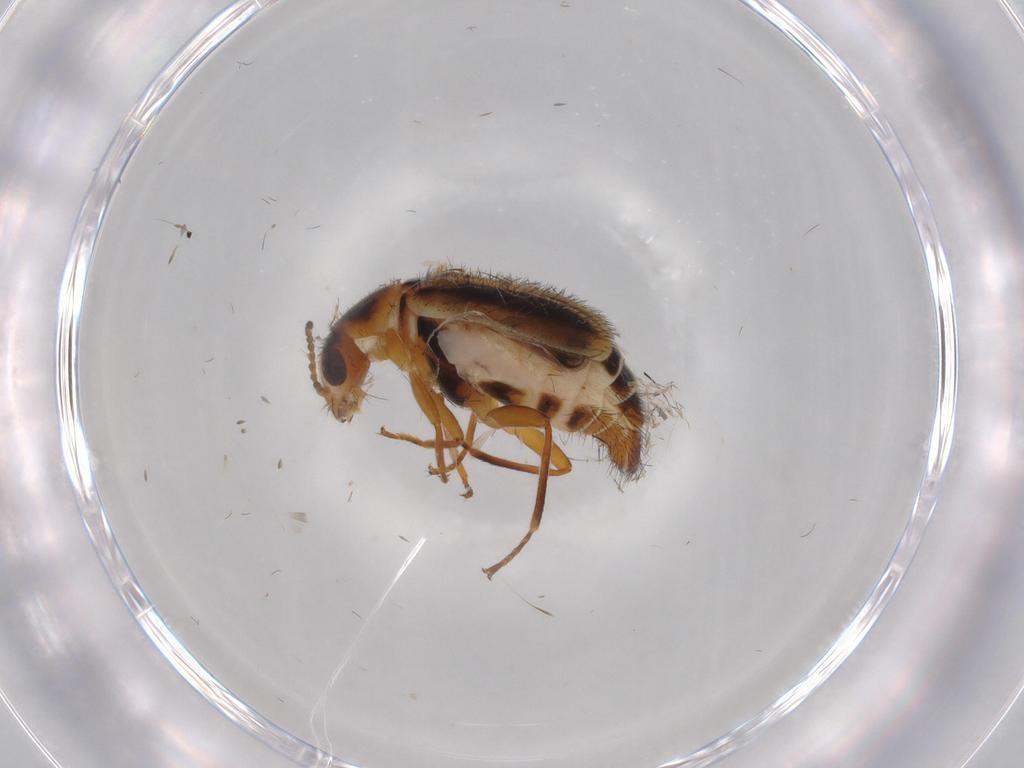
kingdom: Animalia
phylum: Arthropoda
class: Insecta
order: Coleoptera
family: Melyridae
